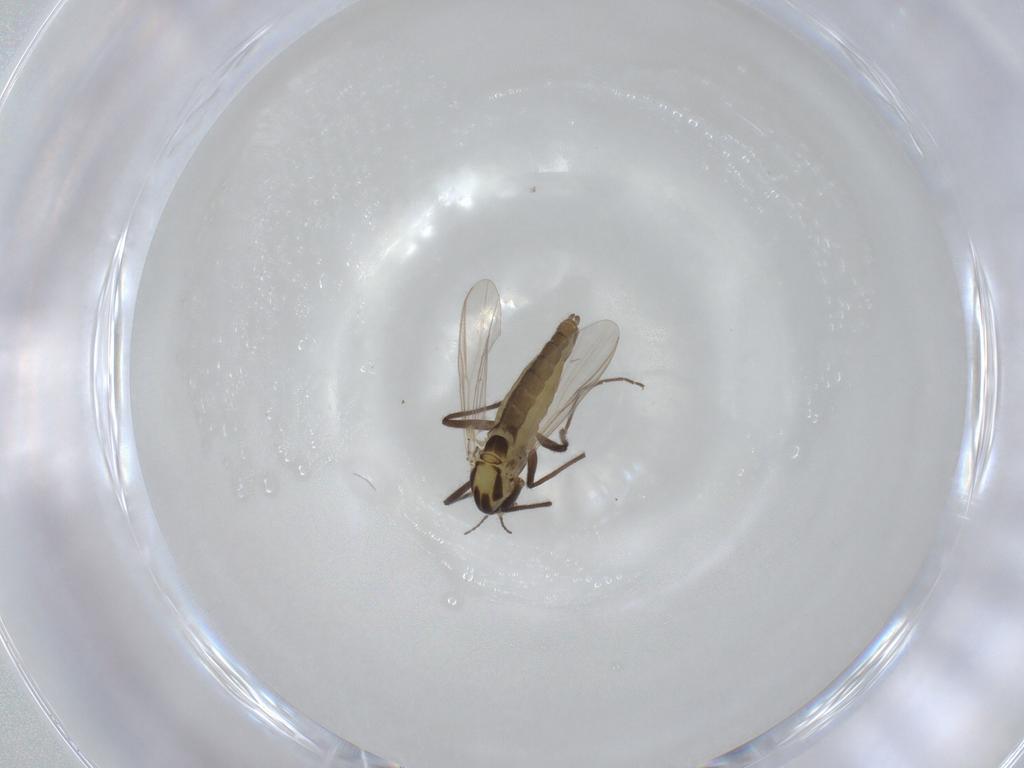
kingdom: Animalia
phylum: Arthropoda
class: Insecta
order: Diptera
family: Chironomidae
